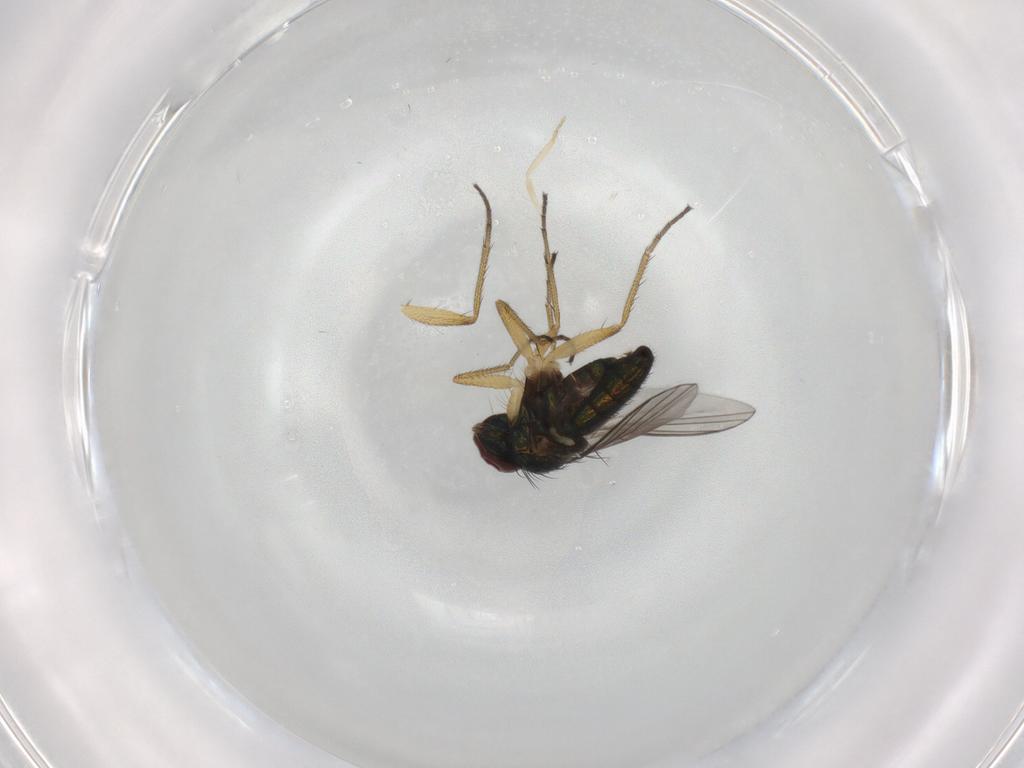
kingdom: Animalia
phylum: Arthropoda
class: Insecta
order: Diptera
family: Ceratopogonidae
